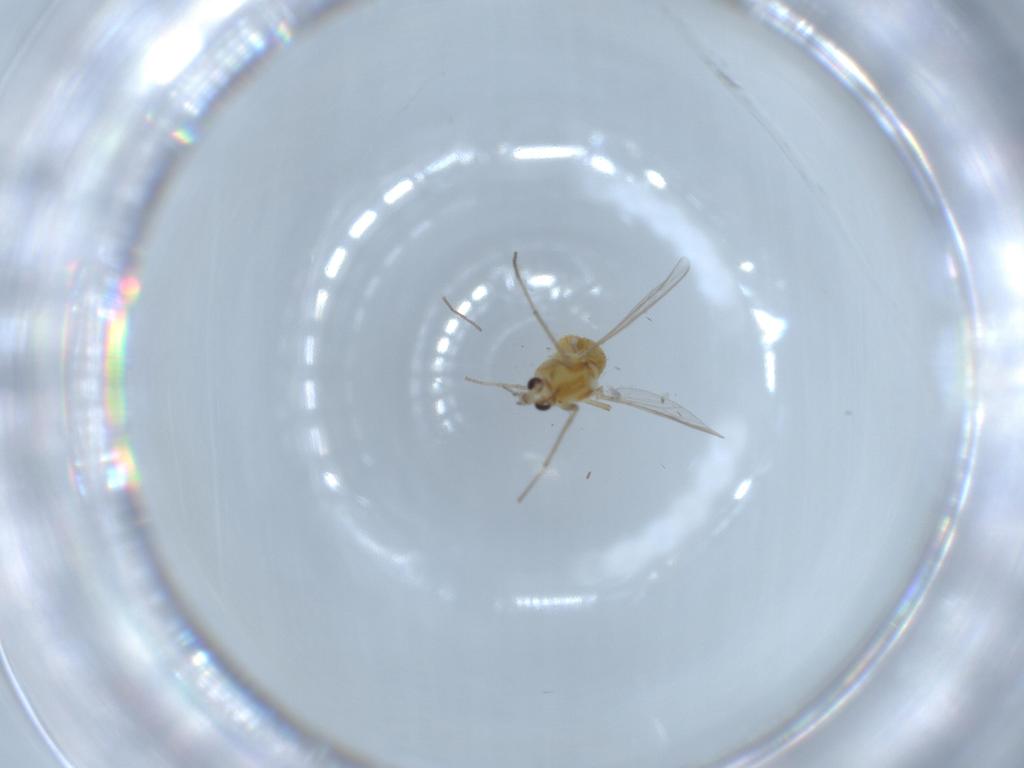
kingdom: Animalia
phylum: Arthropoda
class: Insecta
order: Diptera
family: Chironomidae
